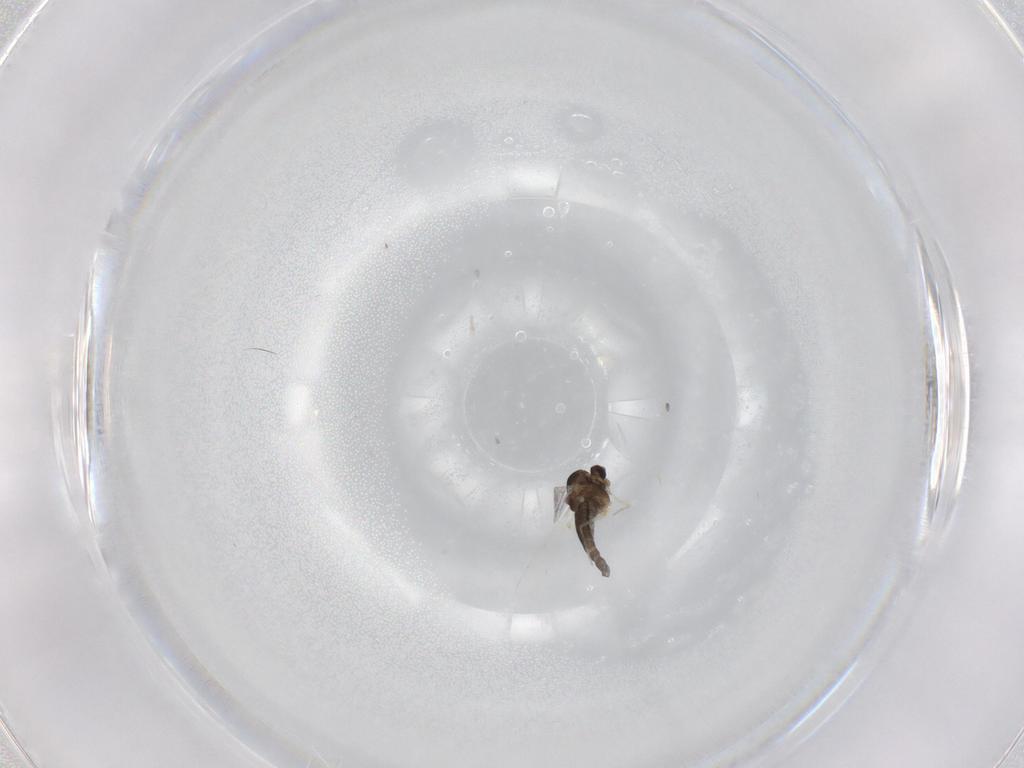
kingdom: Animalia
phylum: Arthropoda
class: Insecta
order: Diptera
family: Chironomidae
